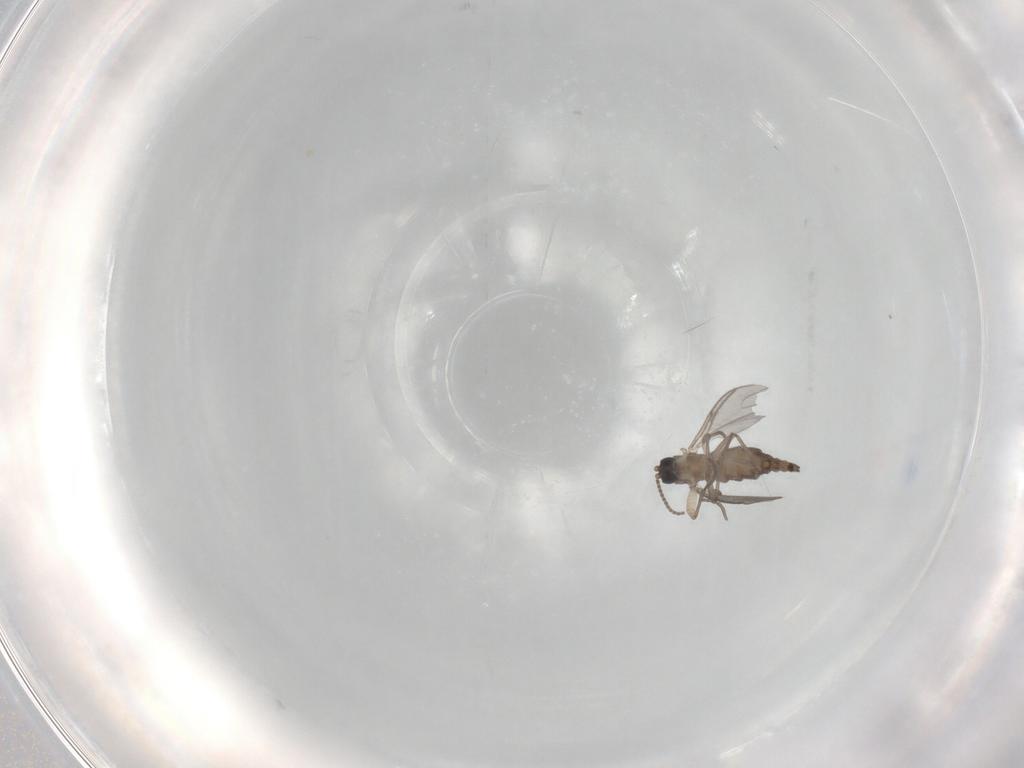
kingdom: Animalia
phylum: Arthropoda
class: Insecta
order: Diptera
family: Sciaridae
